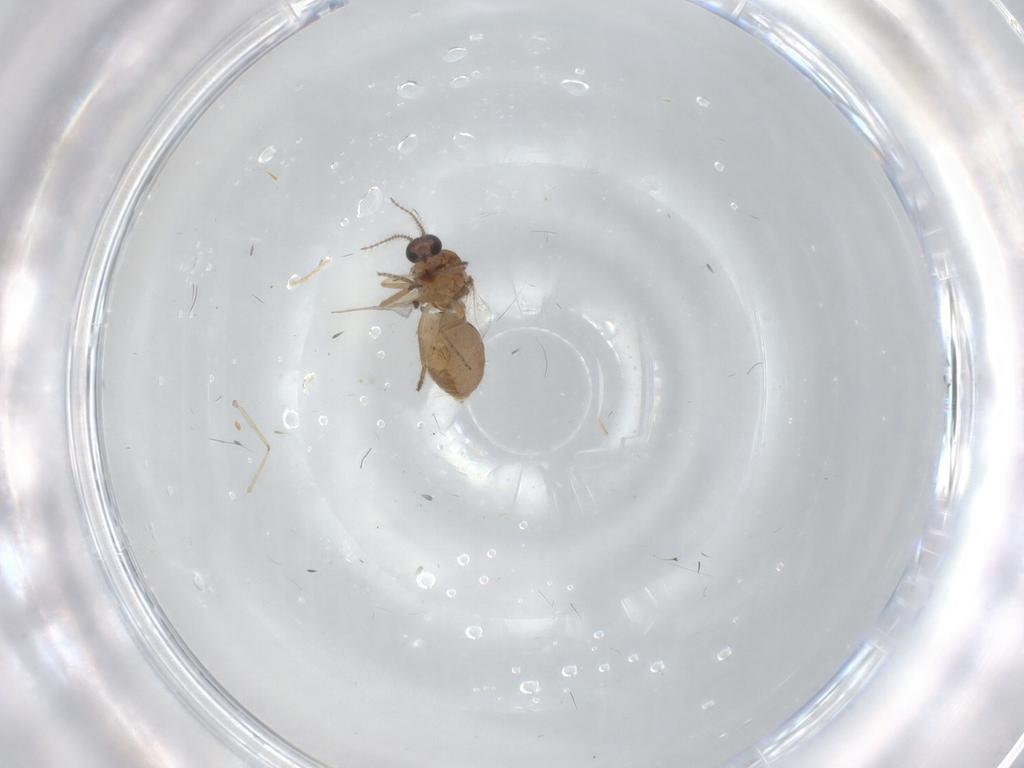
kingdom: Animalia
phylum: Arthropoda
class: Insecta
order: Diptera
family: Ceratopogonidae
